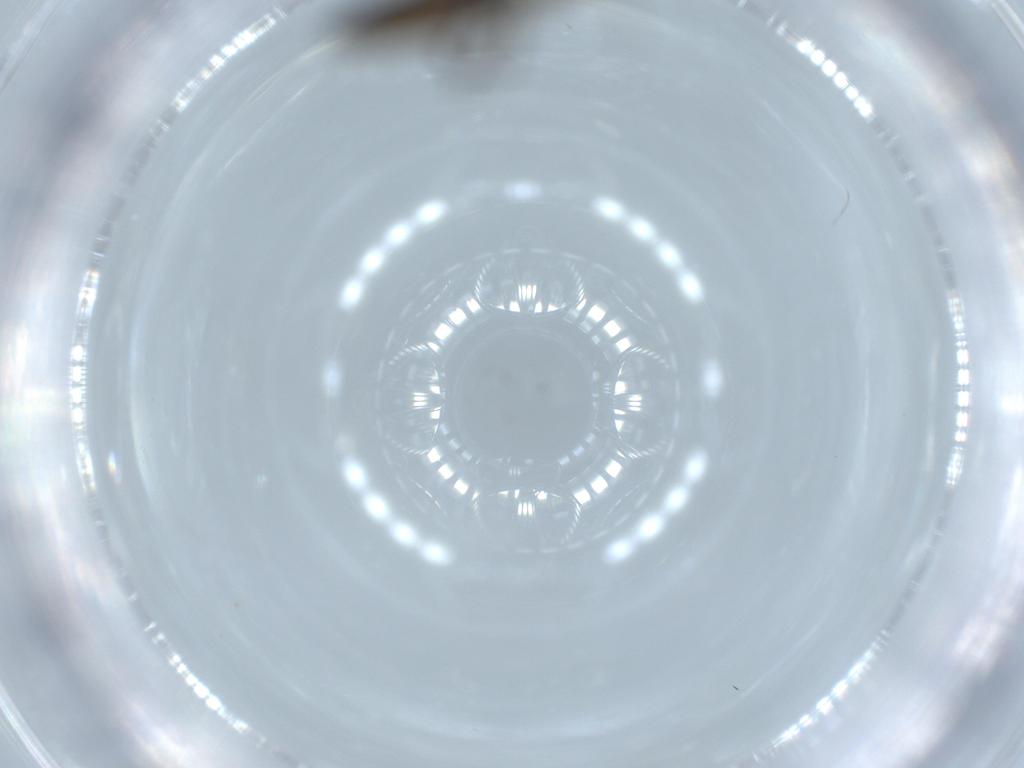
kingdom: Animalia
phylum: Arthropoda
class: Insecta
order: Diptera
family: Sciaridae
